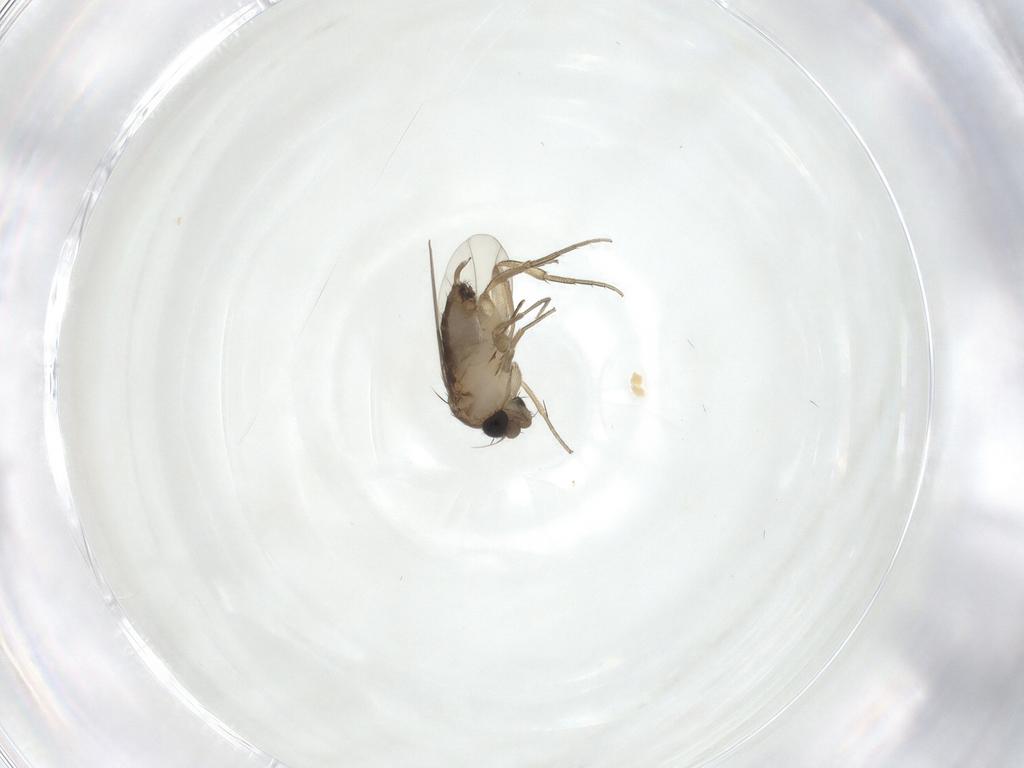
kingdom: Animalia
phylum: Arthropoda
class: Insecta
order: Diptera
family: Phoridae
